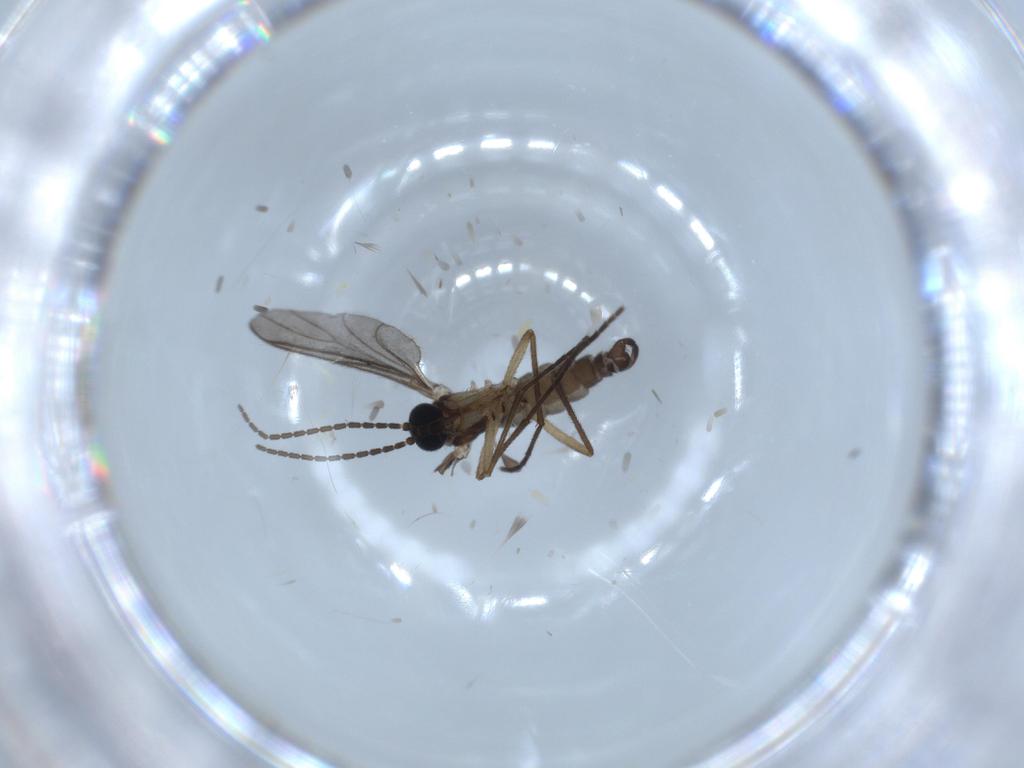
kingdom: Animalia
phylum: Arthropoda
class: Insecta
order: Diptera
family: Sciaridae
